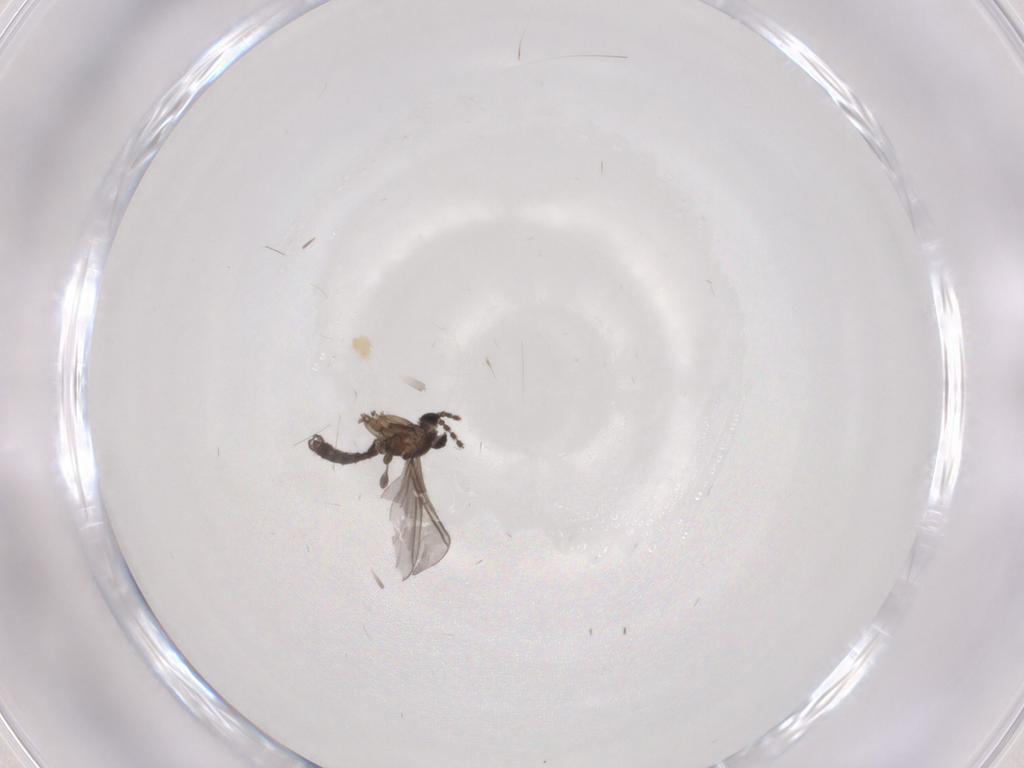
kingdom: Animalia
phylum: Arthropoda
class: Insecta
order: Diptera
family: Sciaridae
